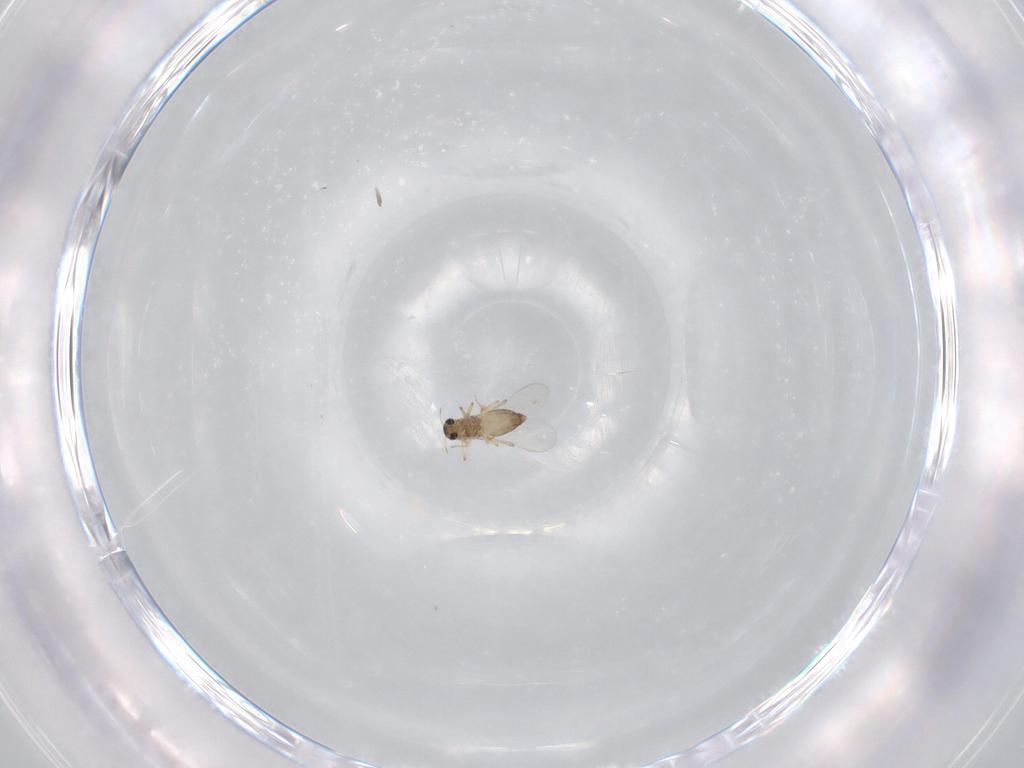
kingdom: Animalia
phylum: Arthropoda
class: Insecta
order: Diptera
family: Chironomidae
